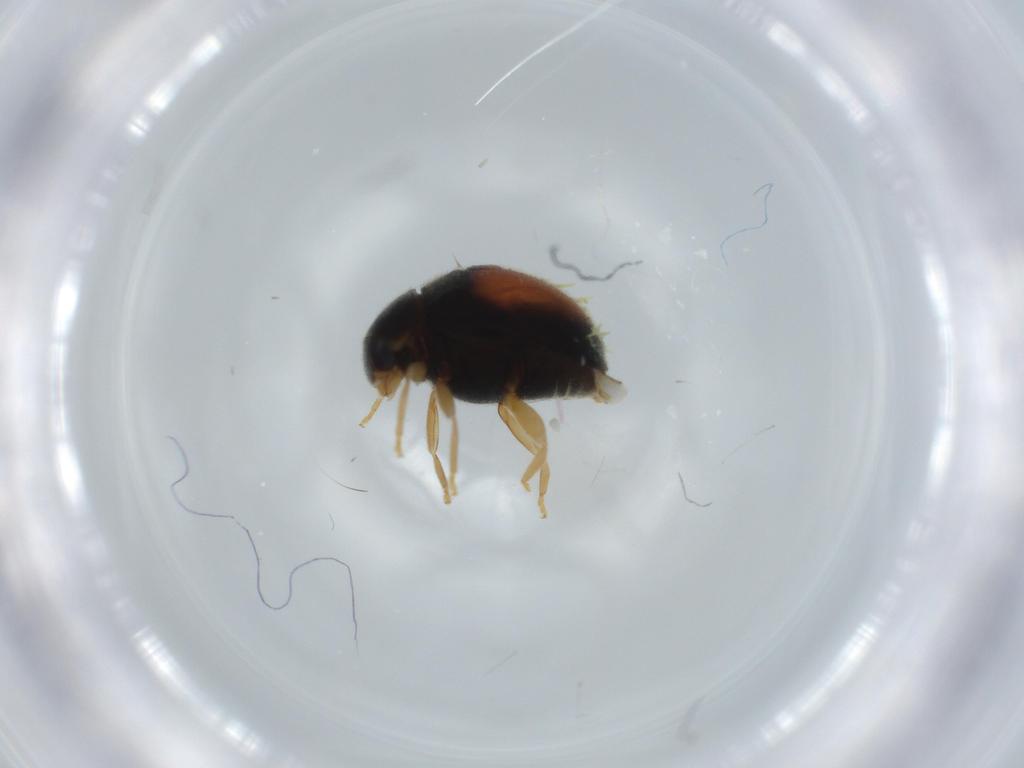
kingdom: Animalia
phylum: Arthropoda
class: Insecta
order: Coleoptera
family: Coccinellidae
